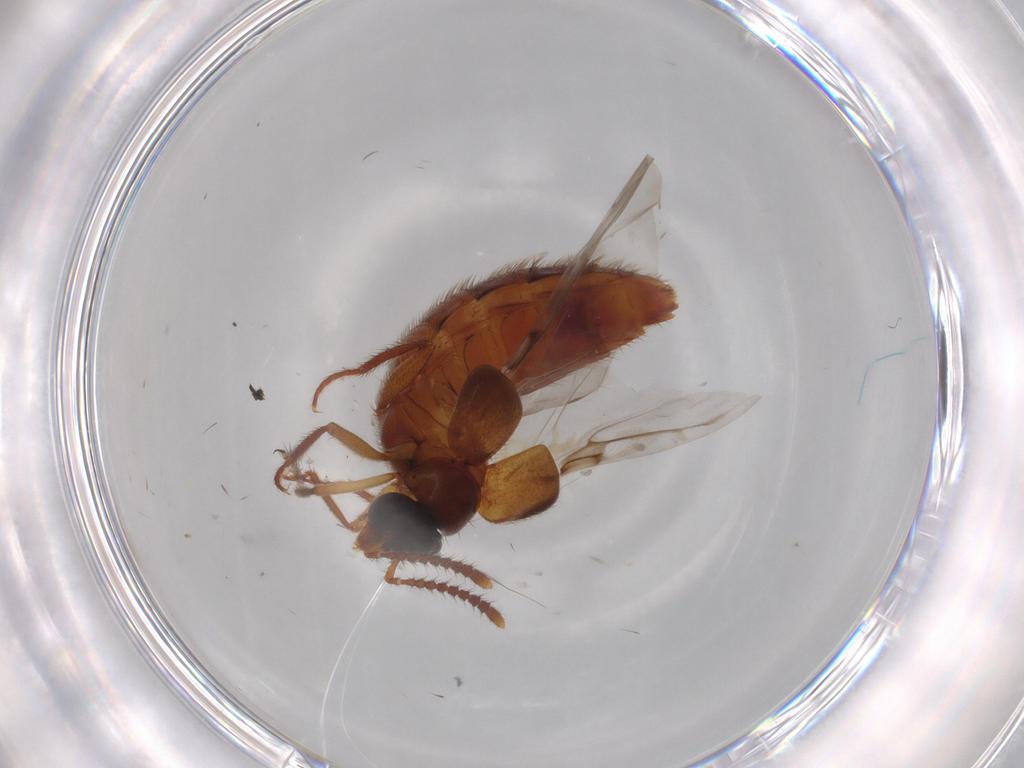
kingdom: Animalia
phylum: Arthropoda
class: Insecta
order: Coleoptera
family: Staphylinidae
